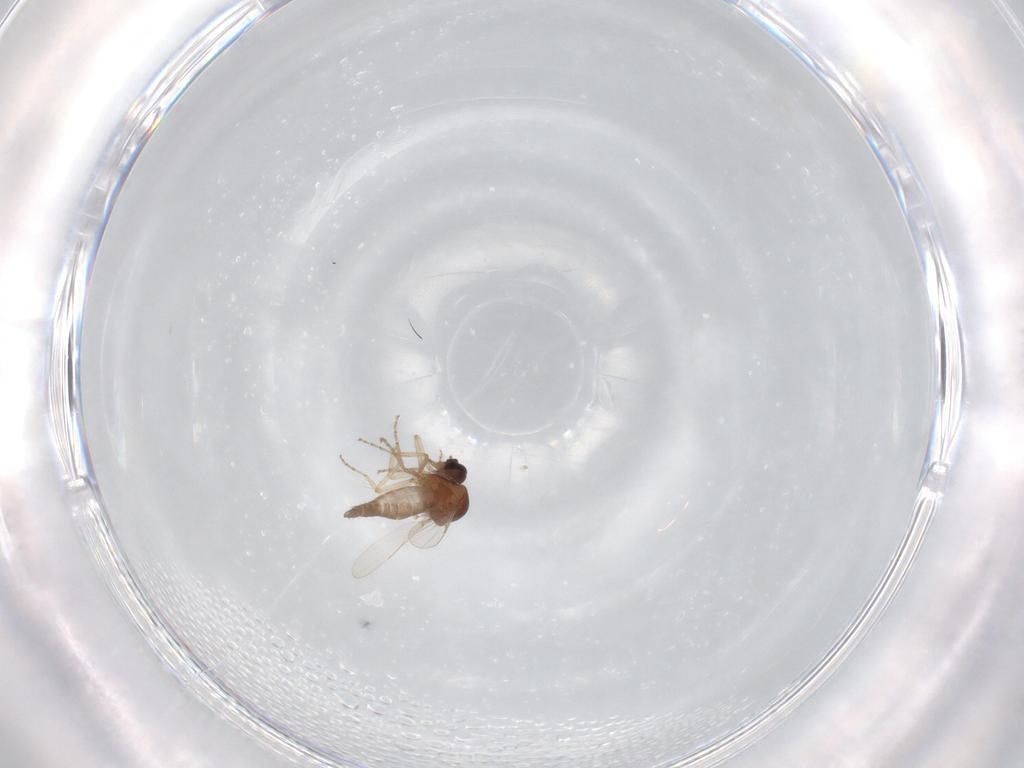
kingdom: Animalia
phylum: Arthropoda
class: Insecta
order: Diptera
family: Ceratopogonidae
